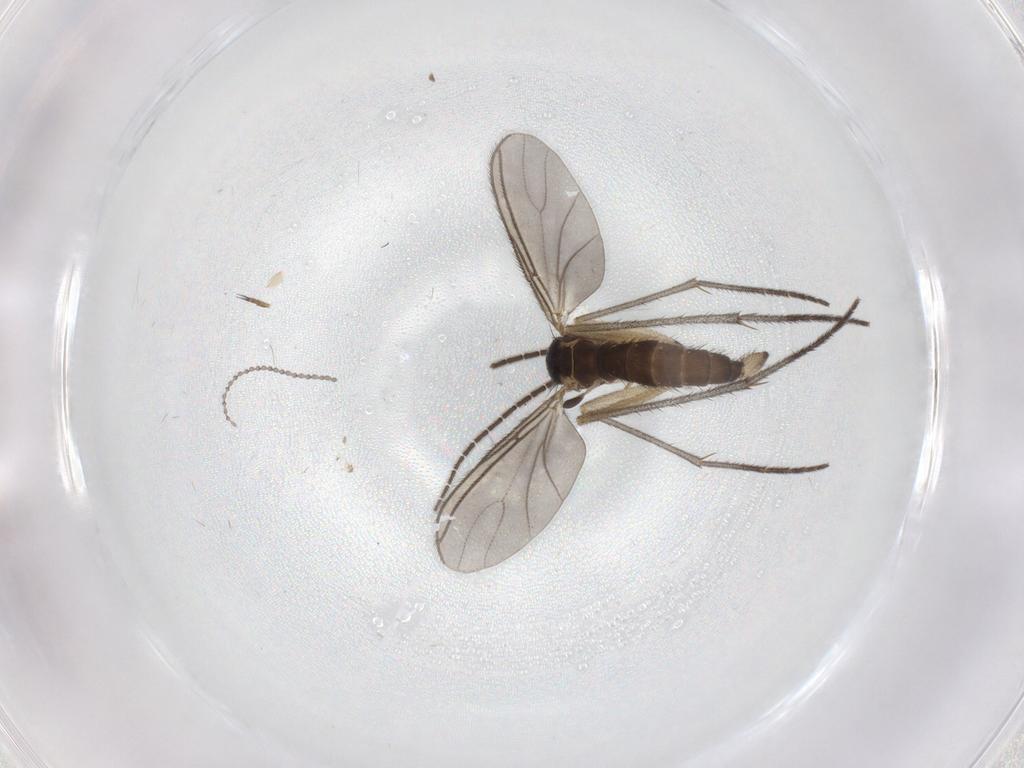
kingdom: Animalia
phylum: Arthropoda
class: Insecta
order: Diptera
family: Sciaridae
